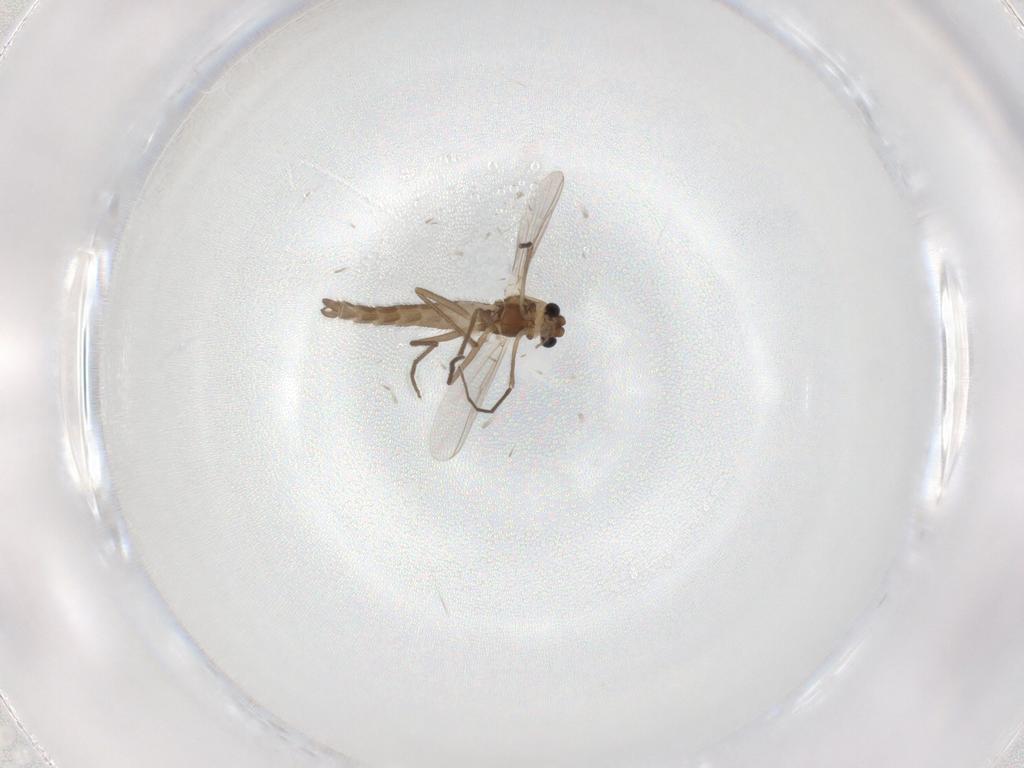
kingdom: Animalia
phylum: Arthropoda
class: Insecta
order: Diptera
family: Chironomidae
